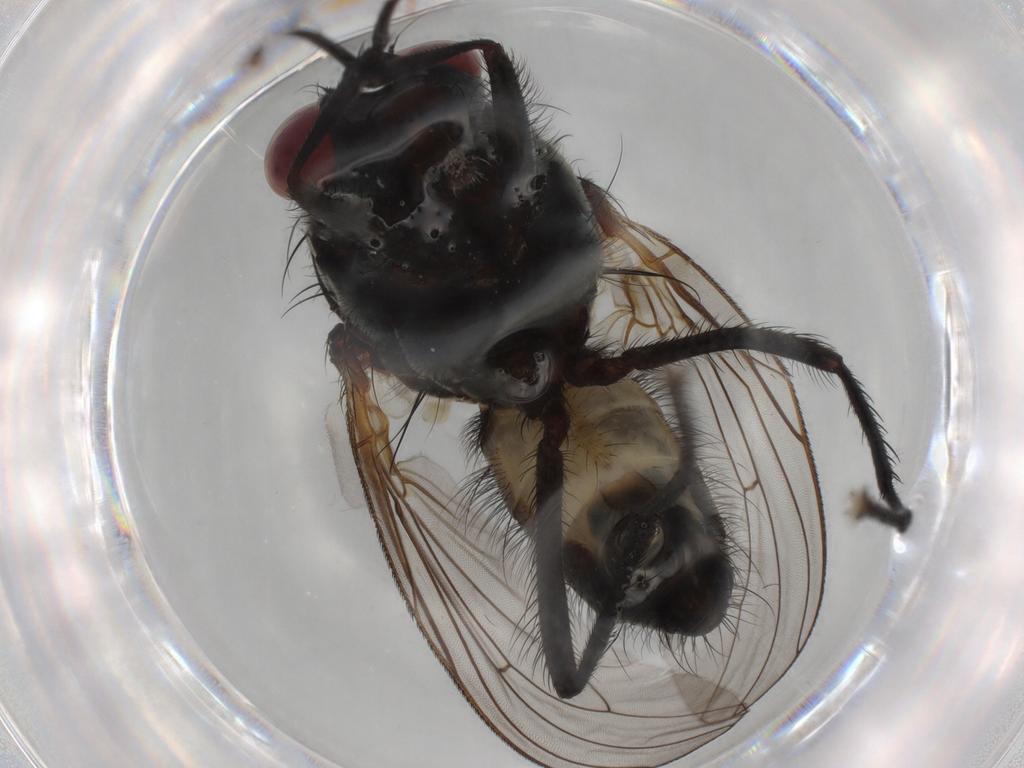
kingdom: Animalia
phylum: Arthropoda
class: Insecta
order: Diptera
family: Anthomyiidae
